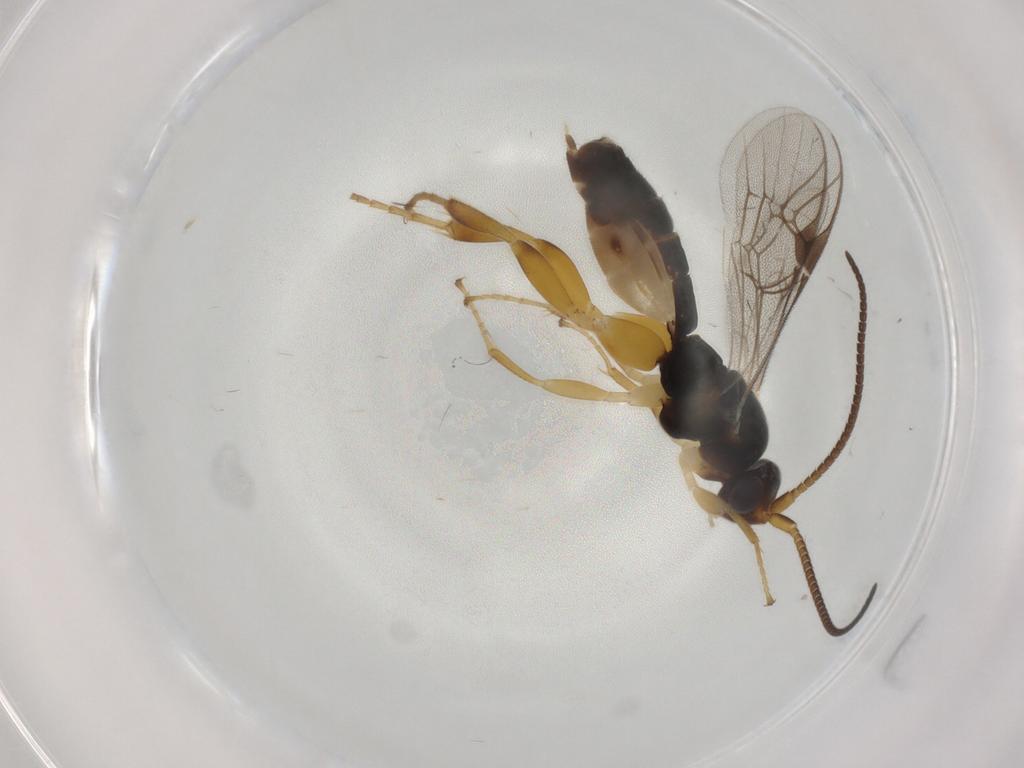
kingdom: Animalia
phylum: Arthropoda
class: Insecta
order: Hymenoptera
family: Ichneumonidae
